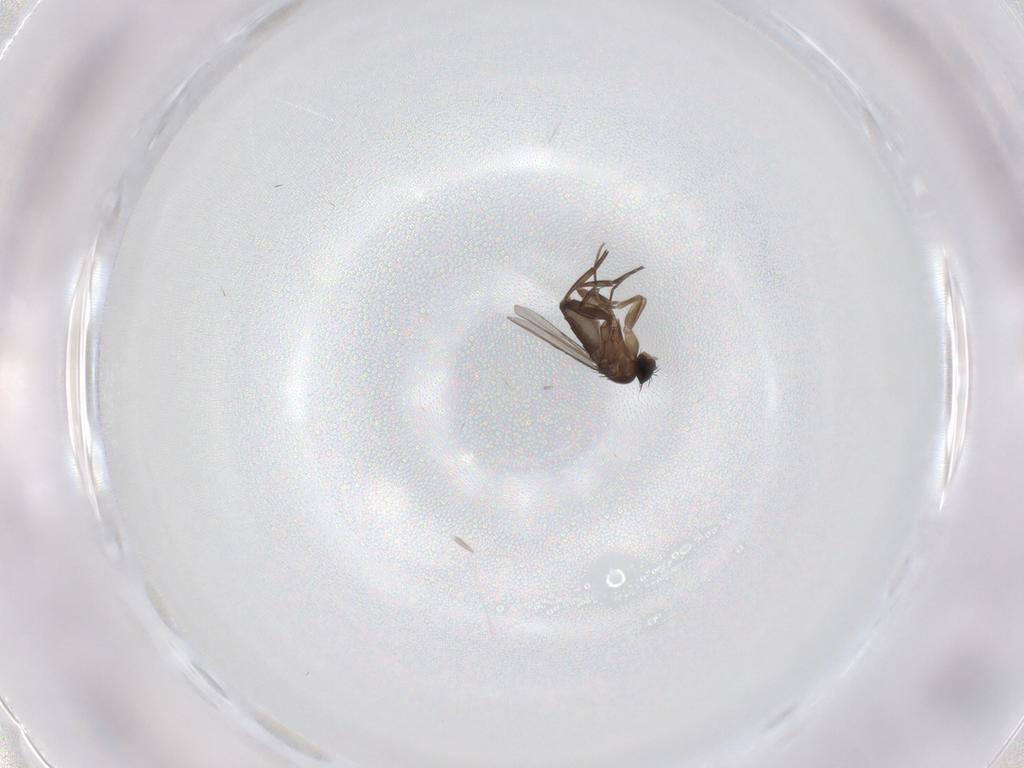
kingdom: Animalia
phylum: Arthropoda
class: Insecta
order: Diptera
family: Phoridae
